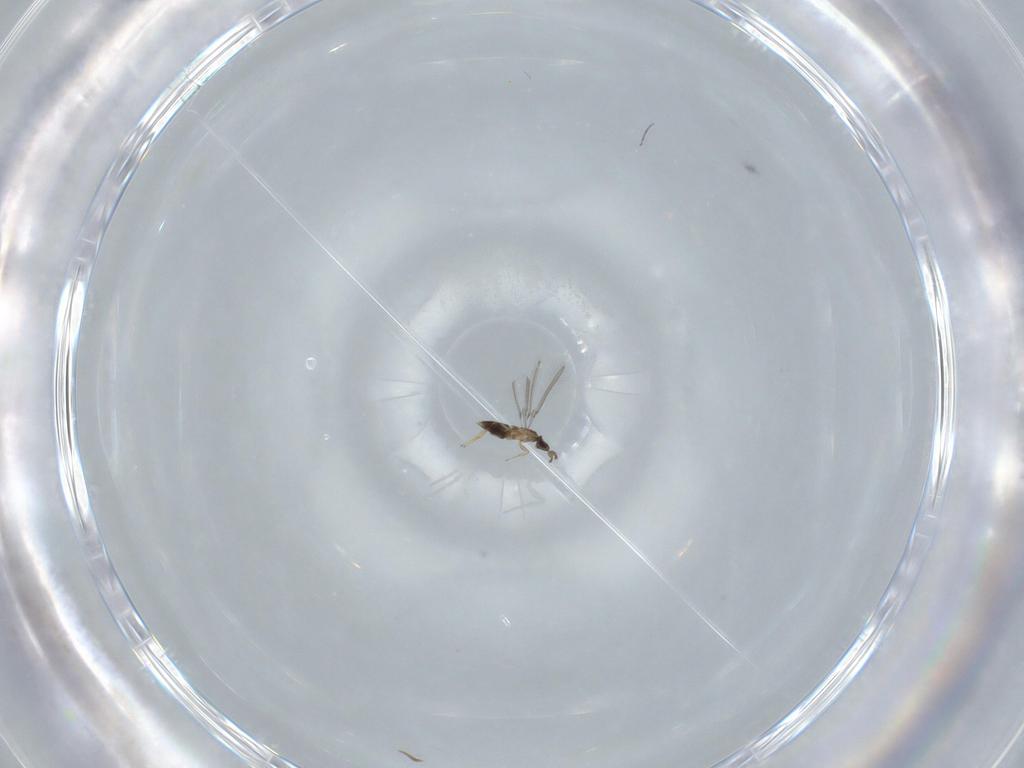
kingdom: Animalia
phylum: Arthropoda
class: Insecta
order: Hymenoptera
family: Mymaridae
